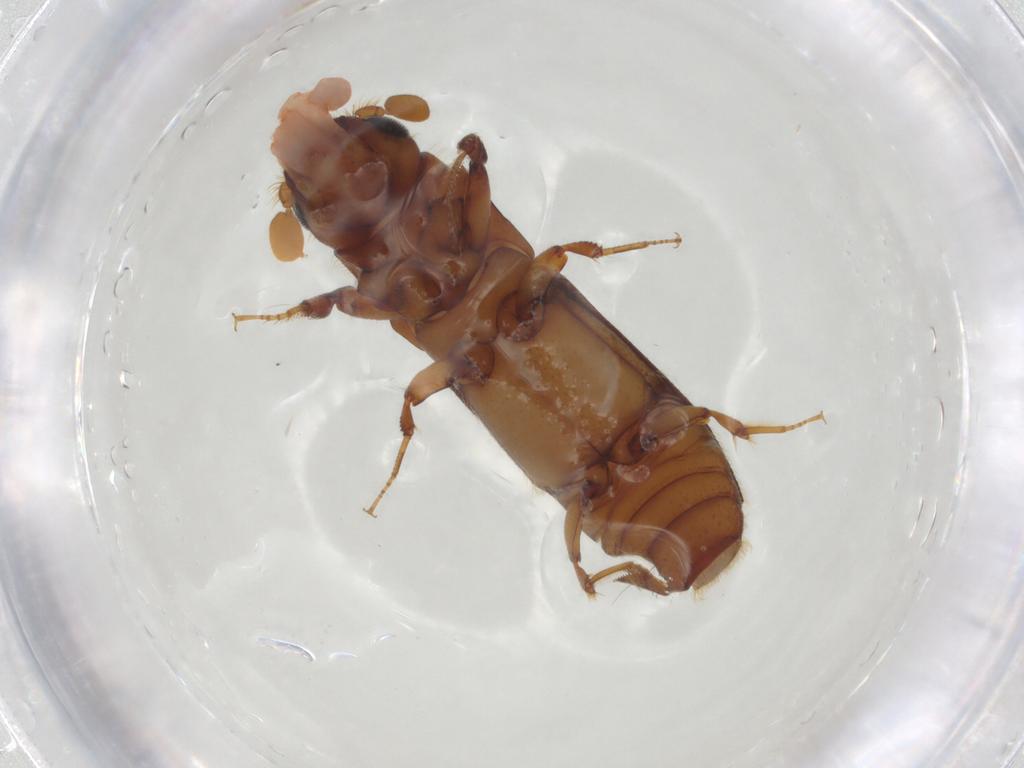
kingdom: Animalia
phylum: Arthropoda
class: Insecta
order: Coleoptera
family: Curculionidae
